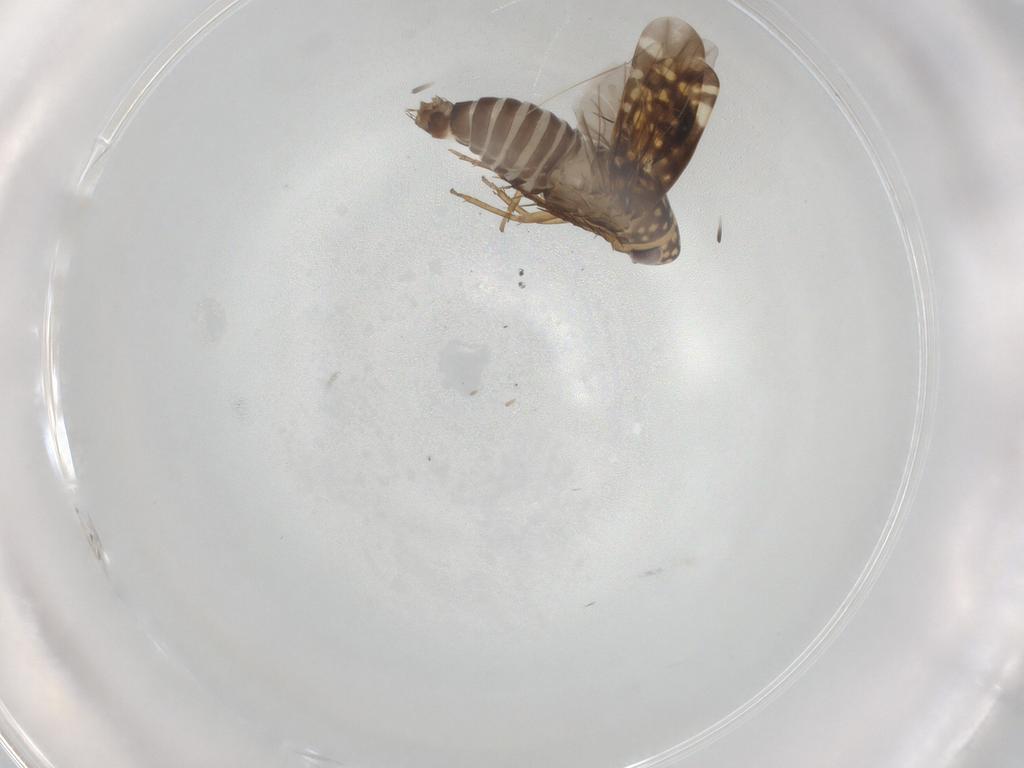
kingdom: Animalia
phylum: Arthropoda
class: Insecta
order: Hemiptera
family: Cicadellidae
